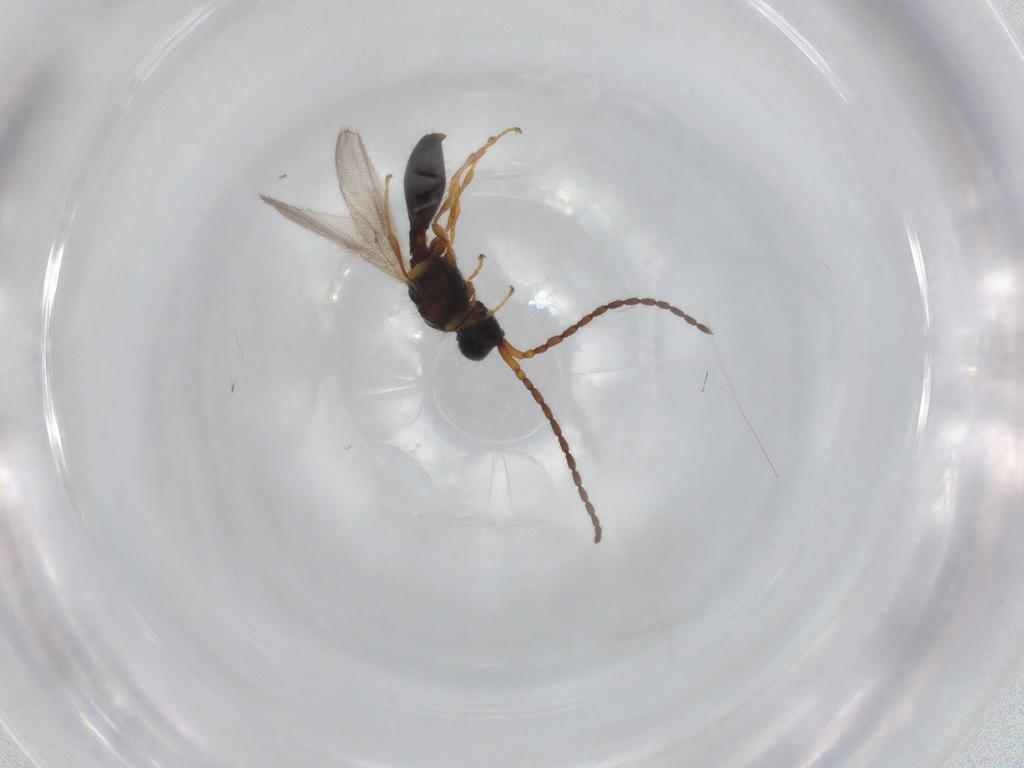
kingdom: Animalia
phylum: Arthropoda
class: Insecta
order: Hymenoptera
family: Diapriidae
